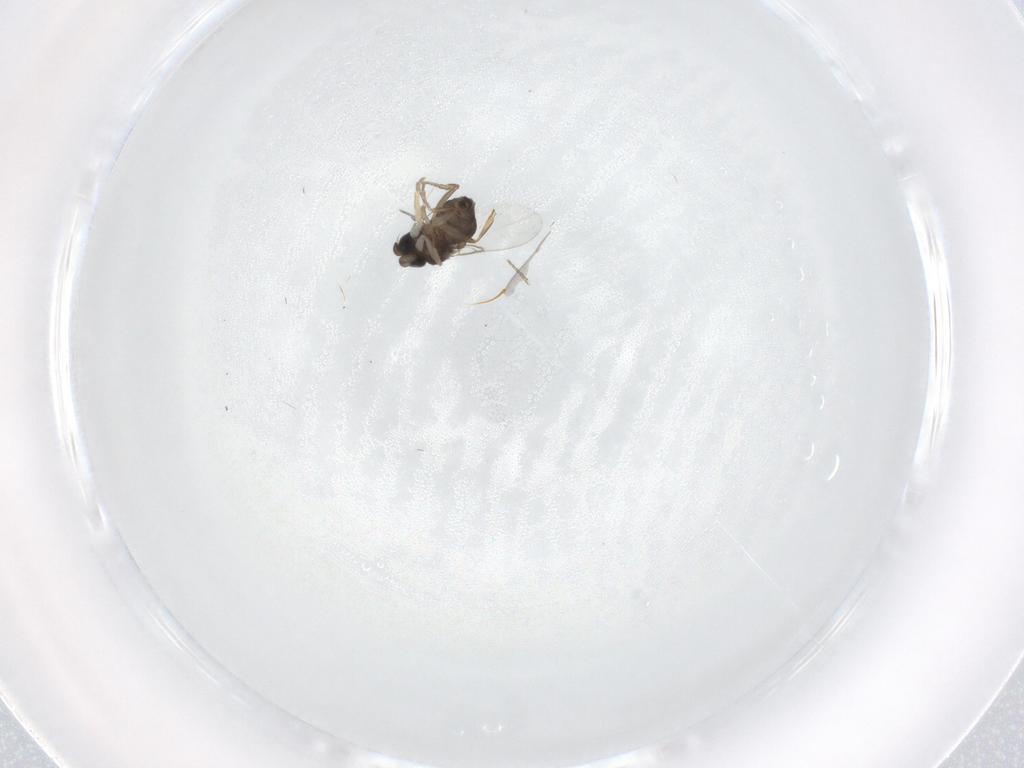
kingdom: Animalia
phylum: Arthropoda
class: Insecta
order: Diptera
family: Phoridae
